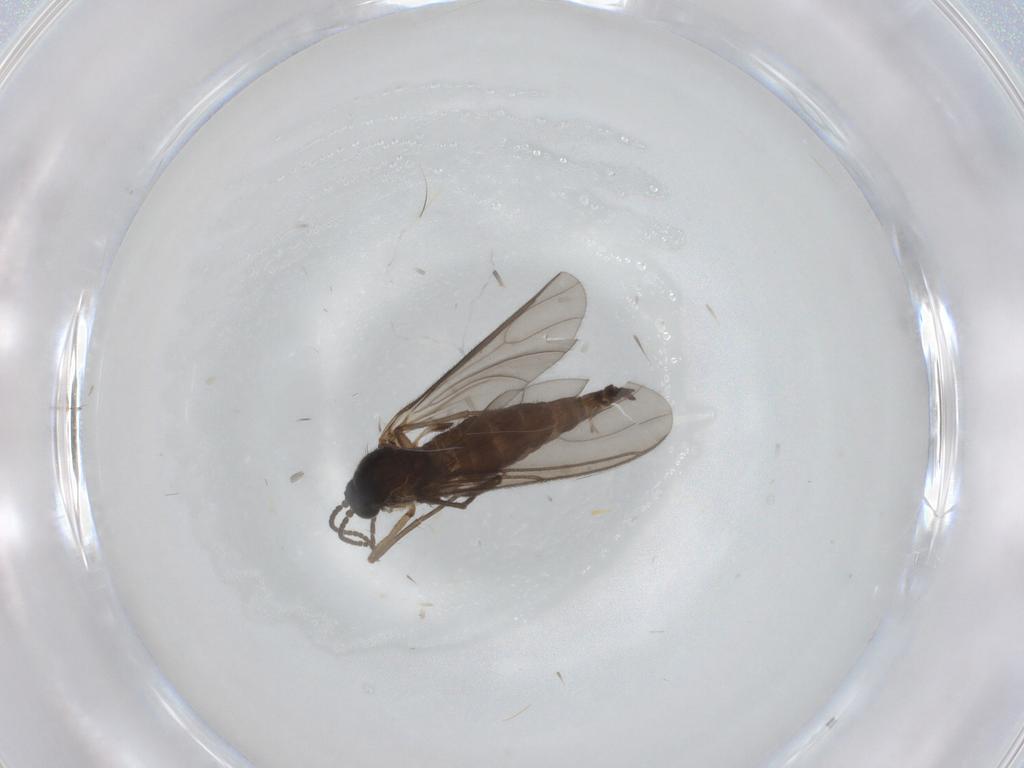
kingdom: Animalia
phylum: Arthropoda
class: Insecta
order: Diptera
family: Sciaridae
